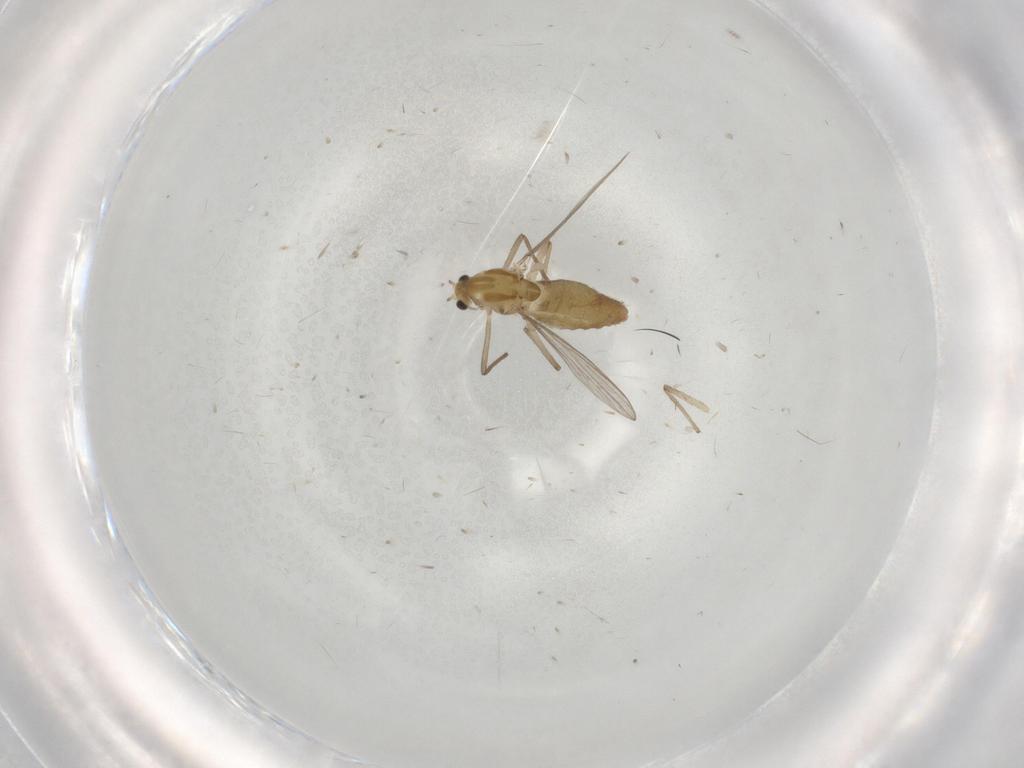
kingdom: Animalia
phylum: Arthropoda
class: Insecta
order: Diptera
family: Chironomidae
